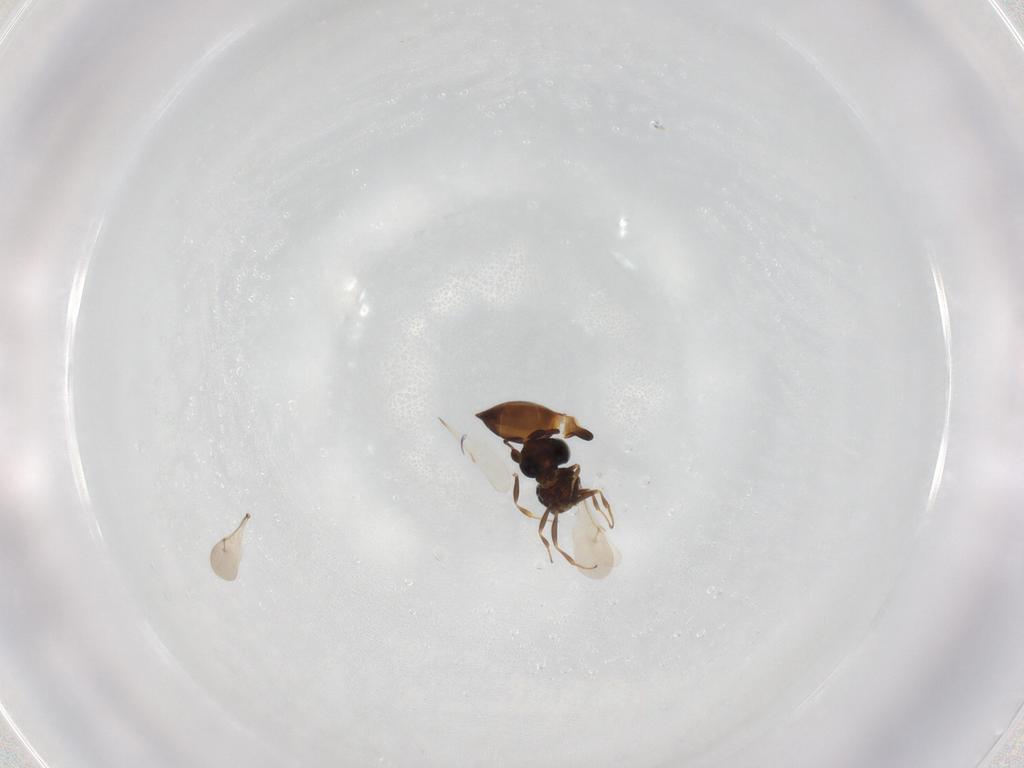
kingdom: Animalia
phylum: Arthropoda
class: Insecta
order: Hymenoptera
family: Scelionidae
